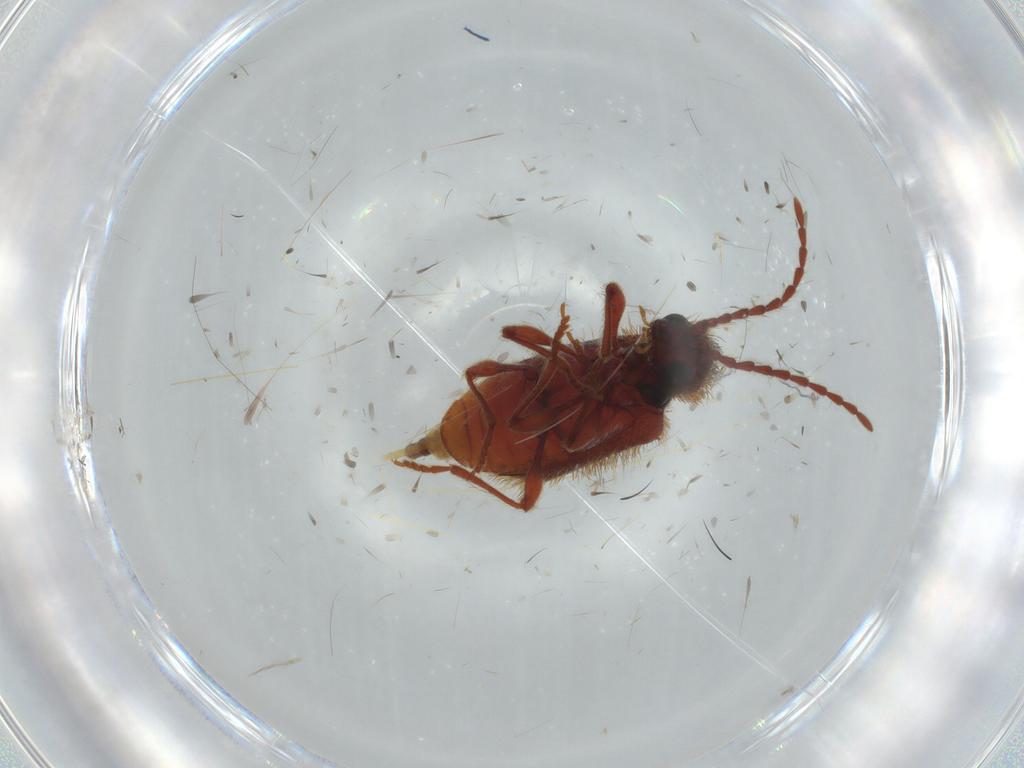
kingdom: Animalia
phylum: Arthropoda
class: Insecta
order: Coleoptera
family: Ptinidae
